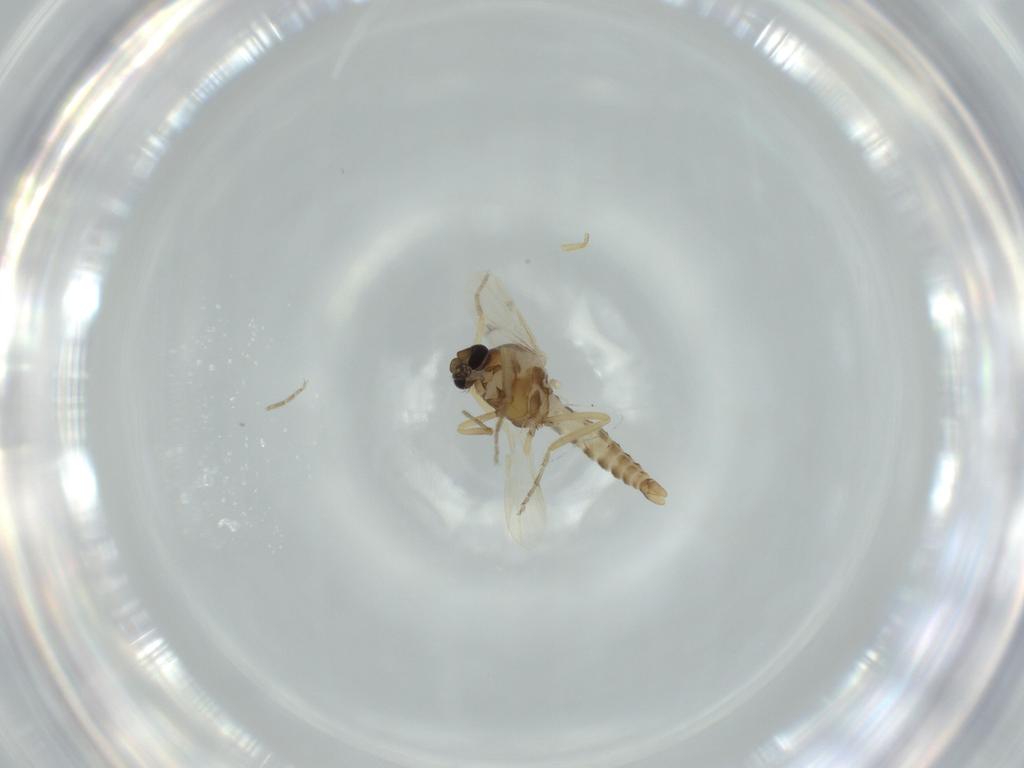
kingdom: Animalia
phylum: Arthropoda
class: Insecta
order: Diptera
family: Ceratopogonidae
